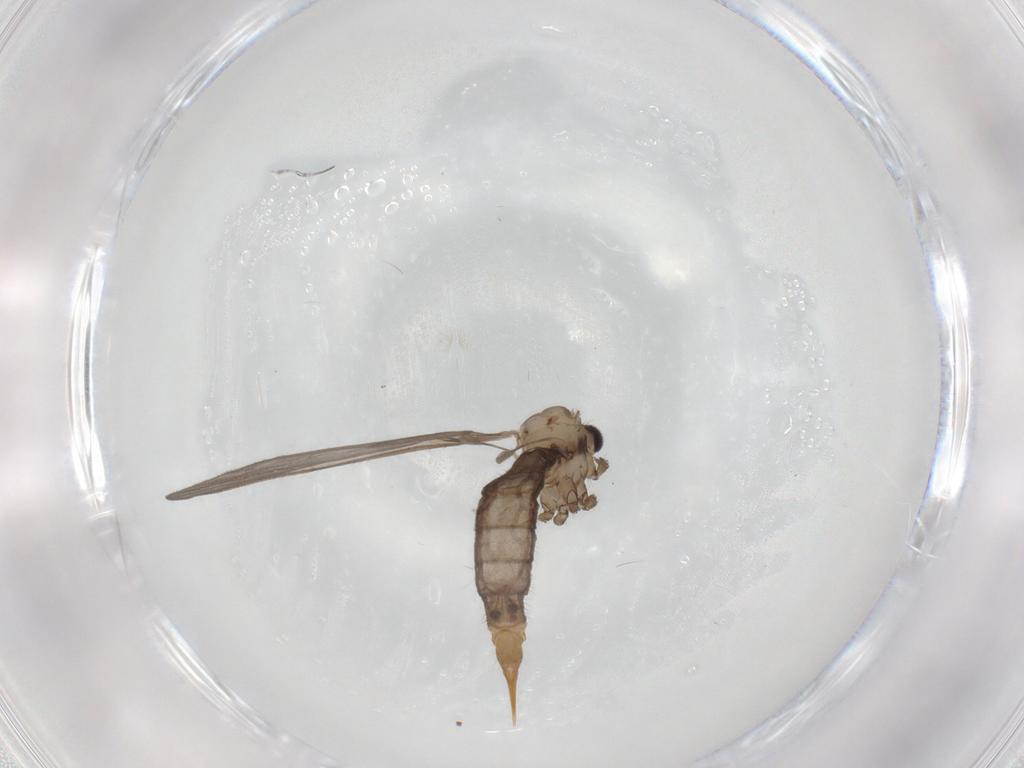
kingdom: Animalia
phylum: Arthropoda
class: Insecta
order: Diptera
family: Limoniidae
